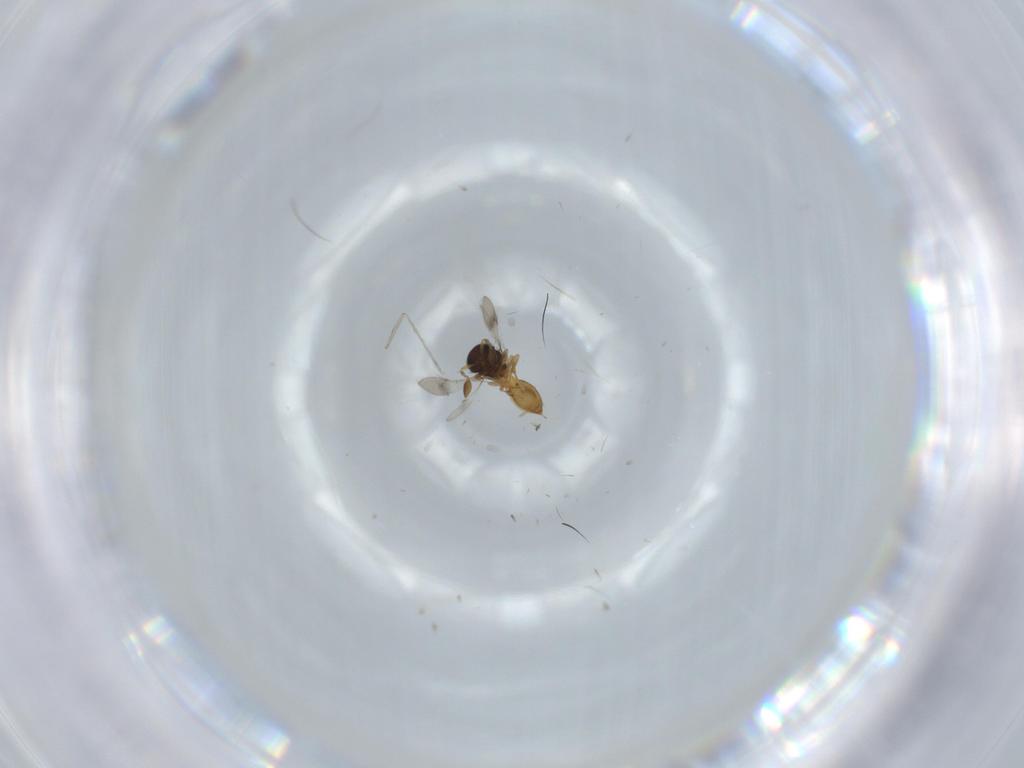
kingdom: Animalia
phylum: Arthropoda
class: Insecta
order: Hymenoptera
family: Scelionidae
